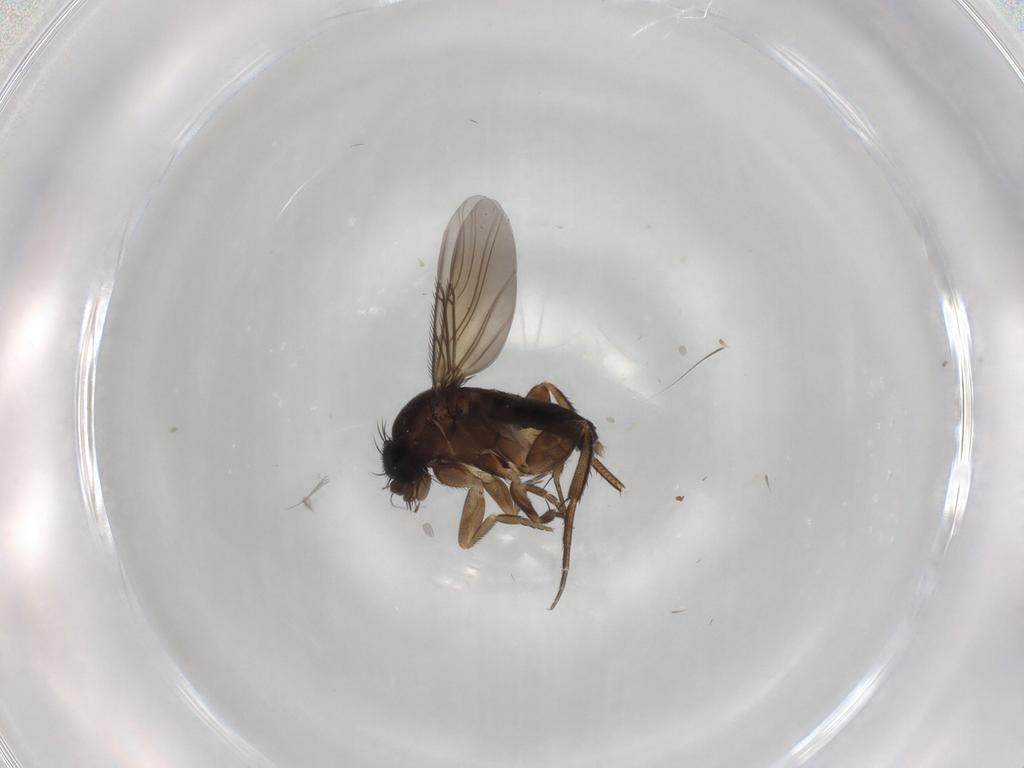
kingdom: Animalia
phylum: Arthropoda
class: Insecta
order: Diptera
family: Phoridae
